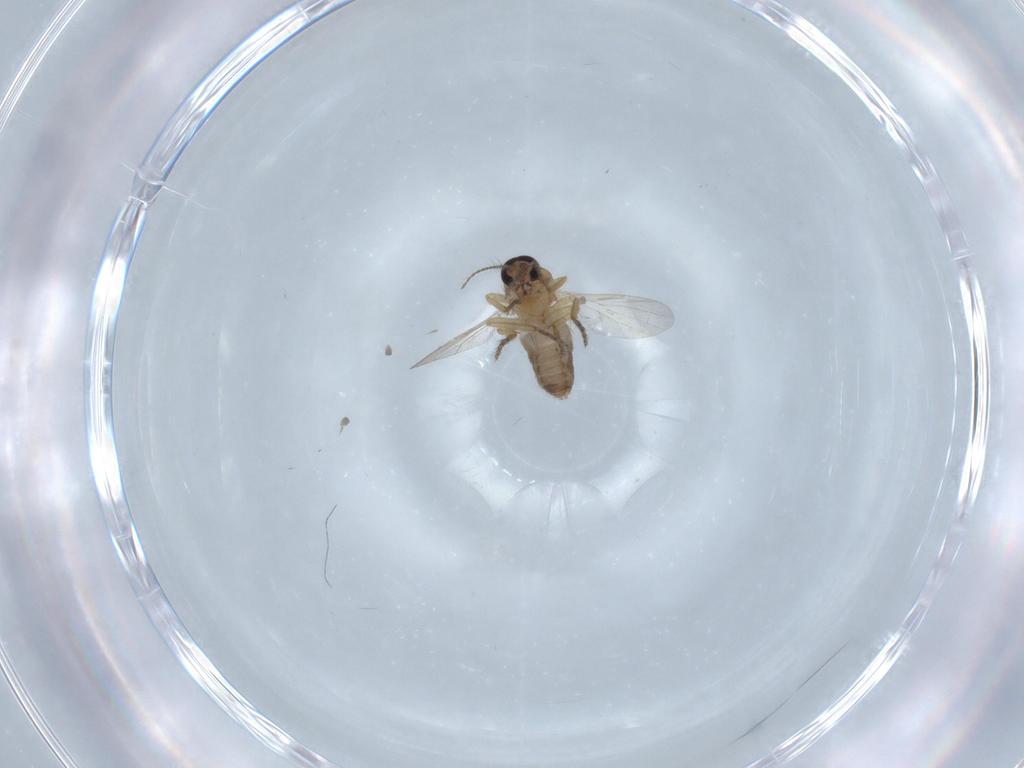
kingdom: Animalia
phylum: Arthropoda
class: Insecta
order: Diptera
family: Ceratopogonidae
